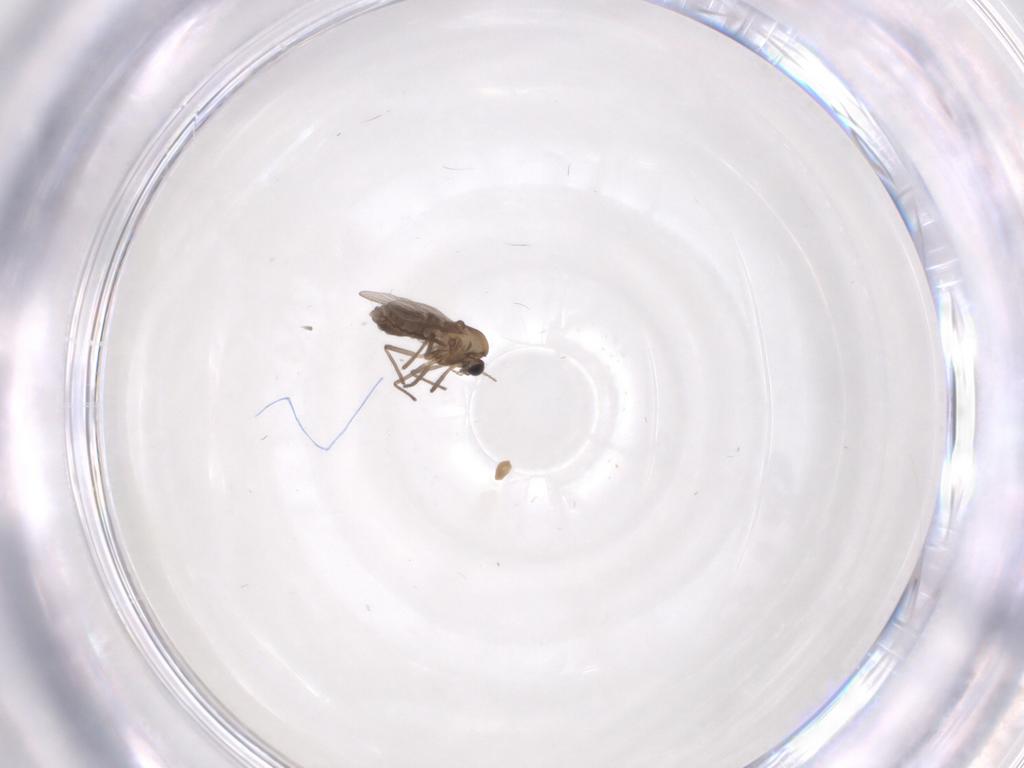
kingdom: Animalia
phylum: Arthropoda
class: Insecta
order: Diptera
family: Chironomidae
